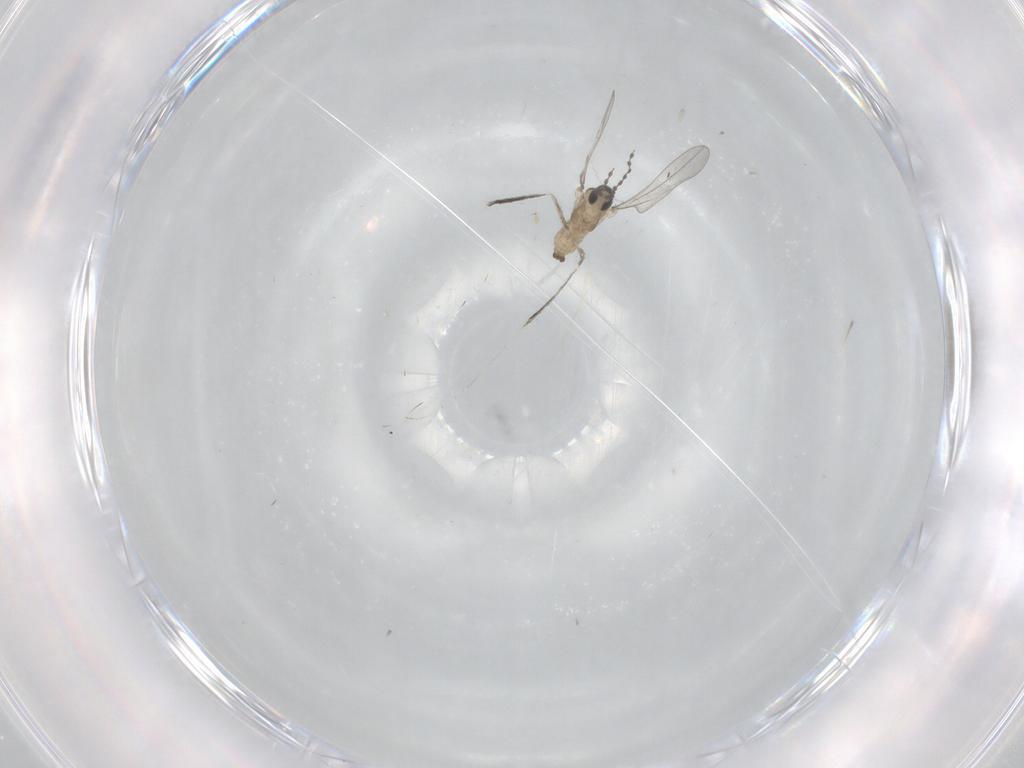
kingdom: Animalia
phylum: Arthropoda
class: Insecta
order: Diptera
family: Cecidomyiidae
